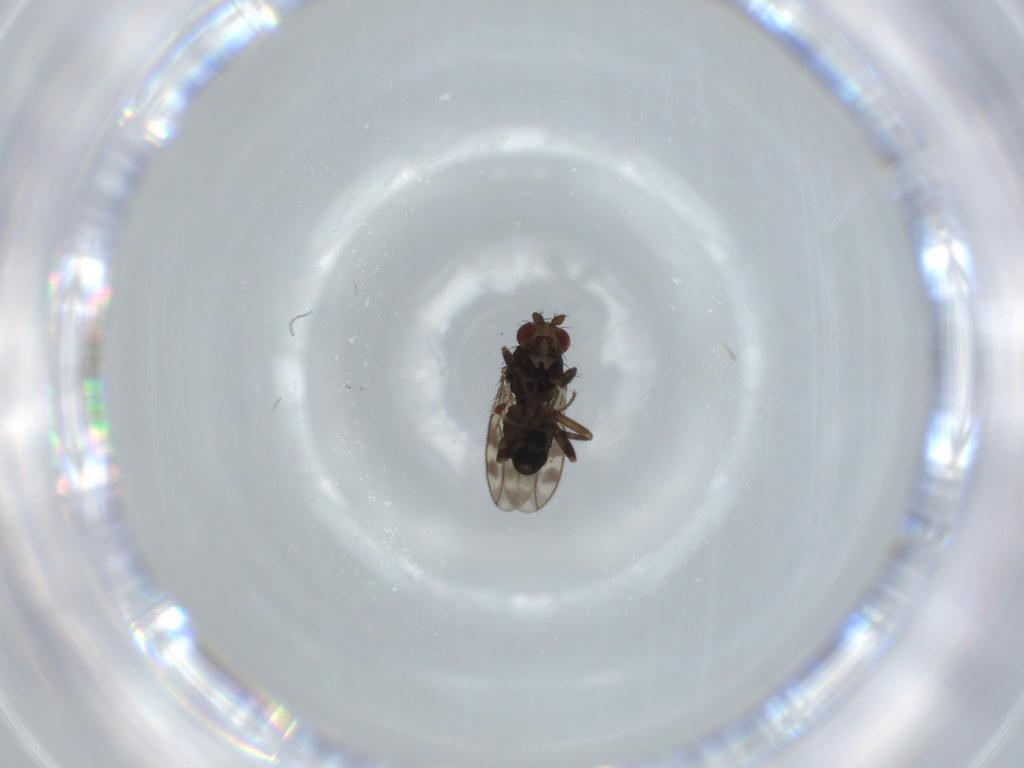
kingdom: Animalia
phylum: Arthropoda
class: Insecta
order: Diptera
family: Sphaeroceridae
